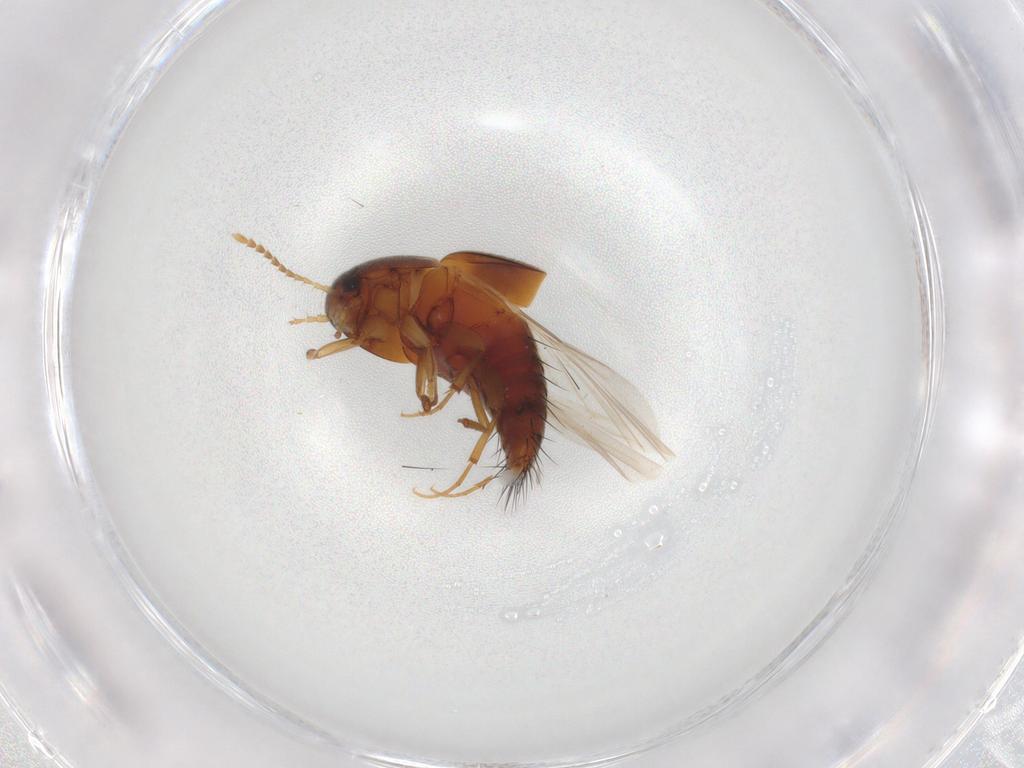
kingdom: Animalia
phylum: Arthropoda
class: Insecta
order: Coleoptera
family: Staphylinidae
